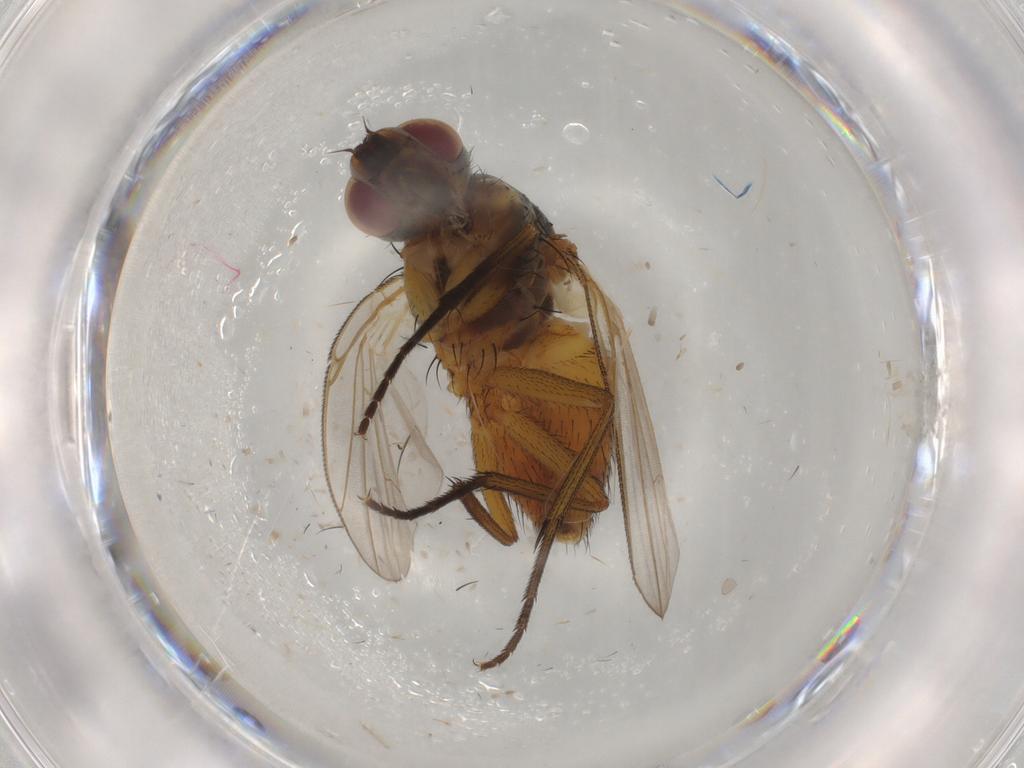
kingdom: Animalia
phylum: Arthropoda
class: Insecta
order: Diptera
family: Muscidae
